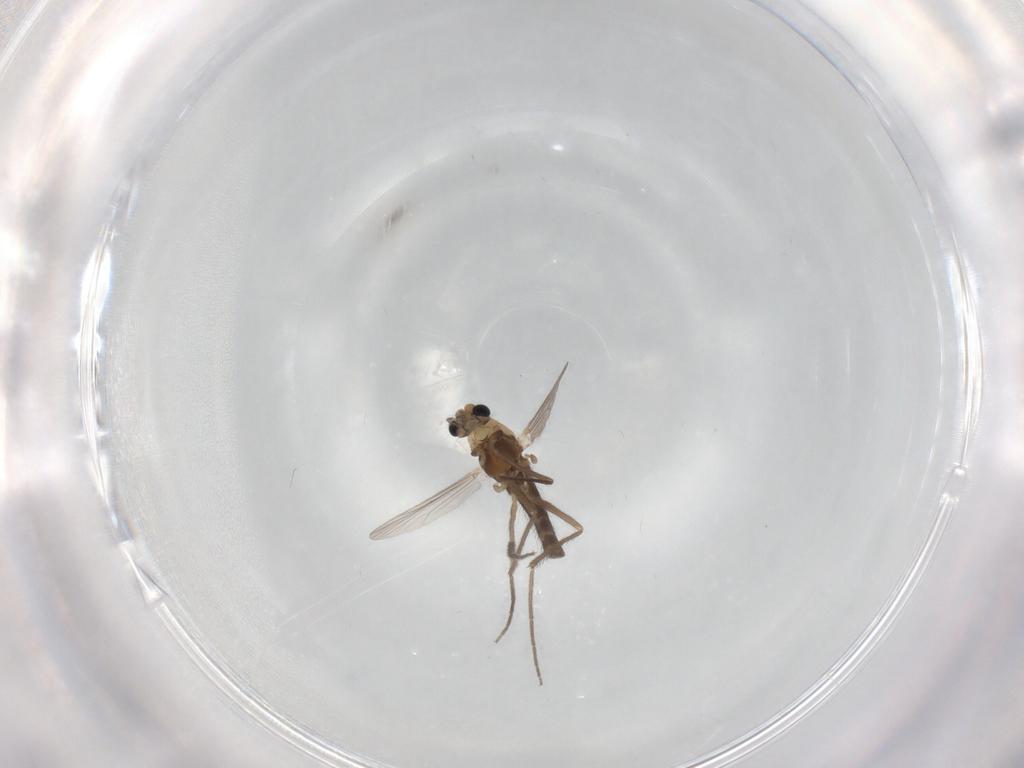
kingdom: Animalia
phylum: Arthropoda
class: Insecta
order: Diptera
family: Chironomidae
